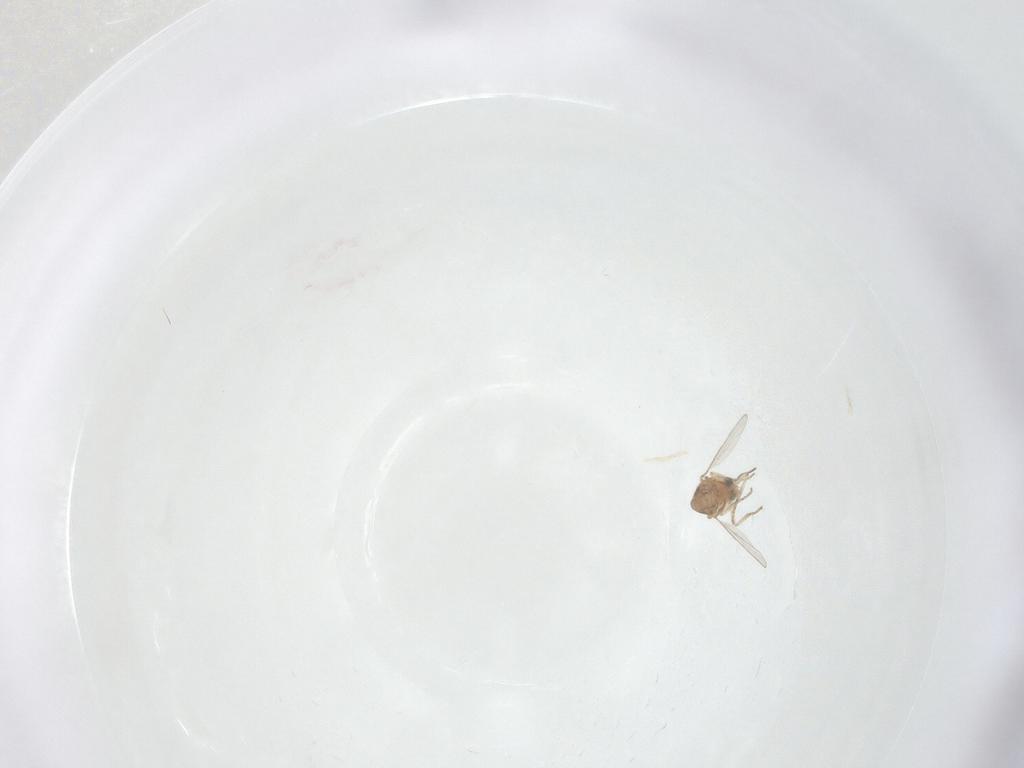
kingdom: Animalia
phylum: Arthropoda
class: Insecta
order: Diptera
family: Ceratopogonidae
